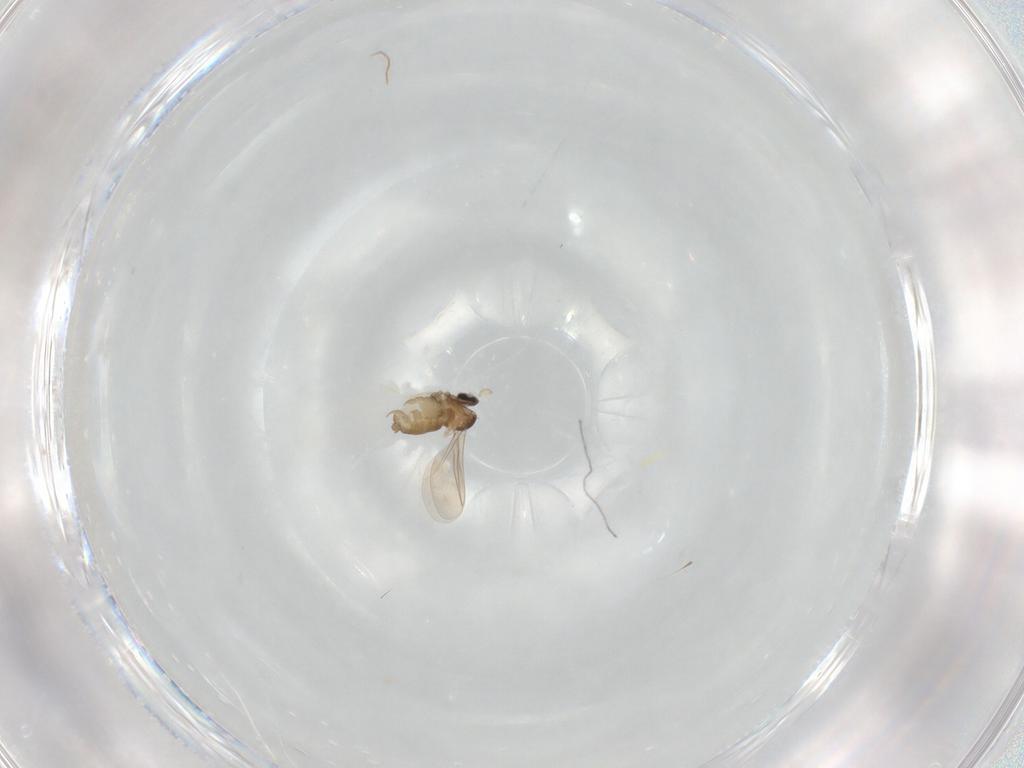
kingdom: Animalia
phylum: Arthropoda
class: Insecta
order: Diptera
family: Cecidomyiidae
